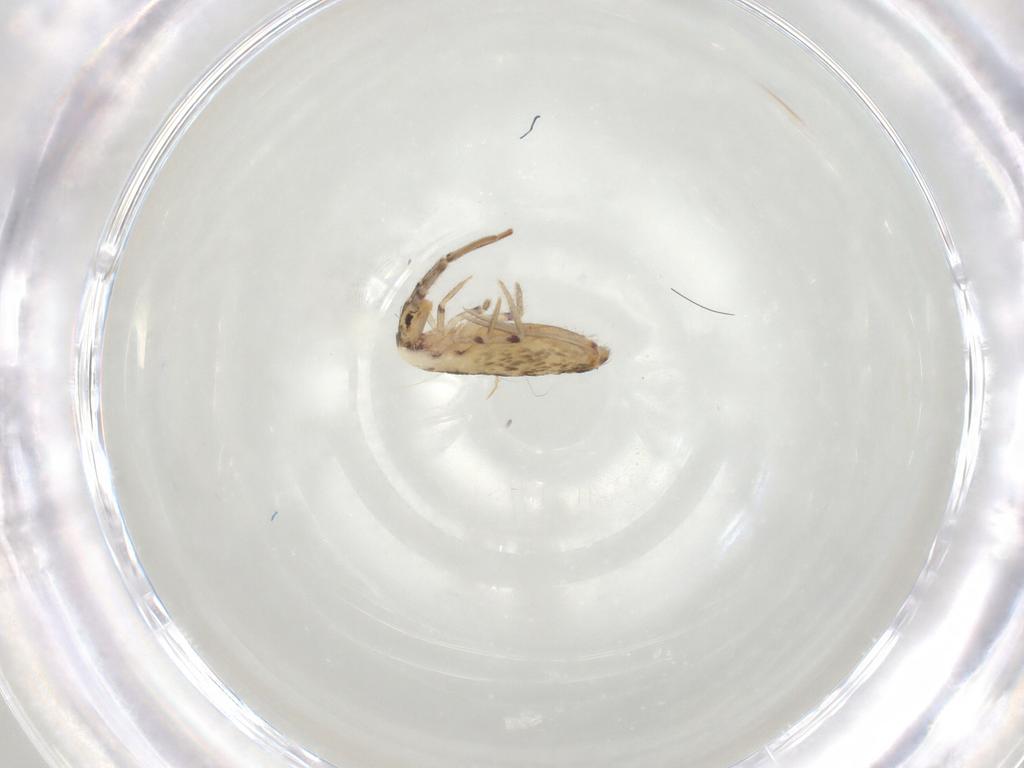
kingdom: Animalia
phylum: Arthropoda
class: Collembola
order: Entomobryomorpha
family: Entomobryidae
